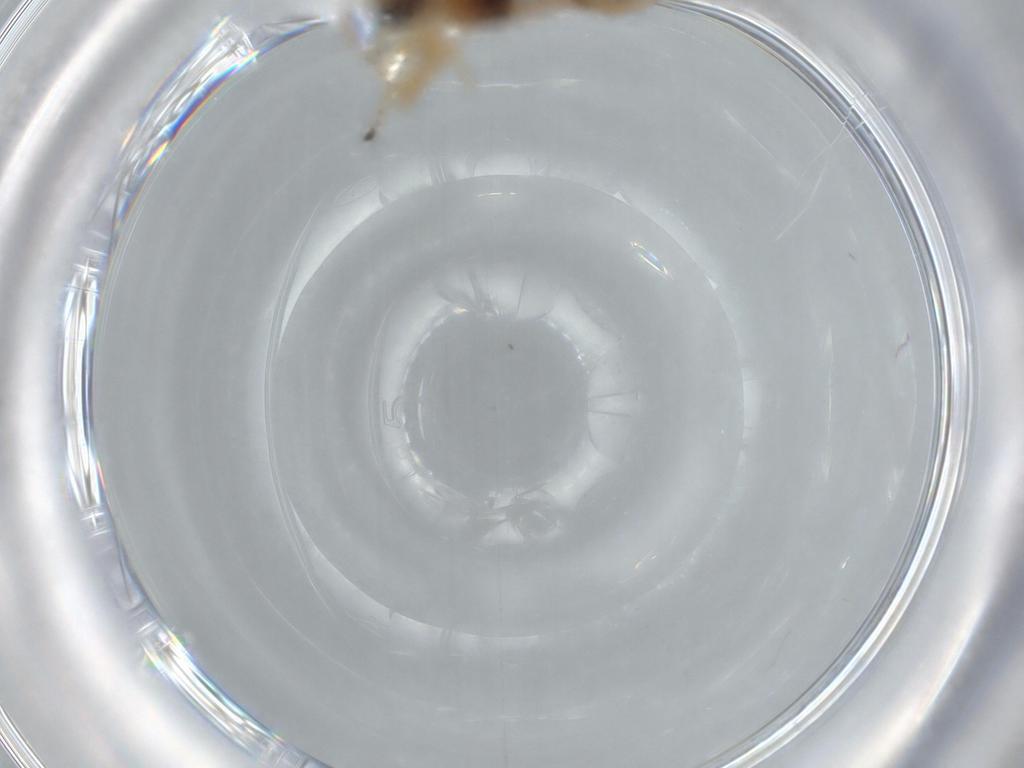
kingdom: Animalia
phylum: Arthropoda
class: Insecta
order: Hymenoptera
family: Braconidae
